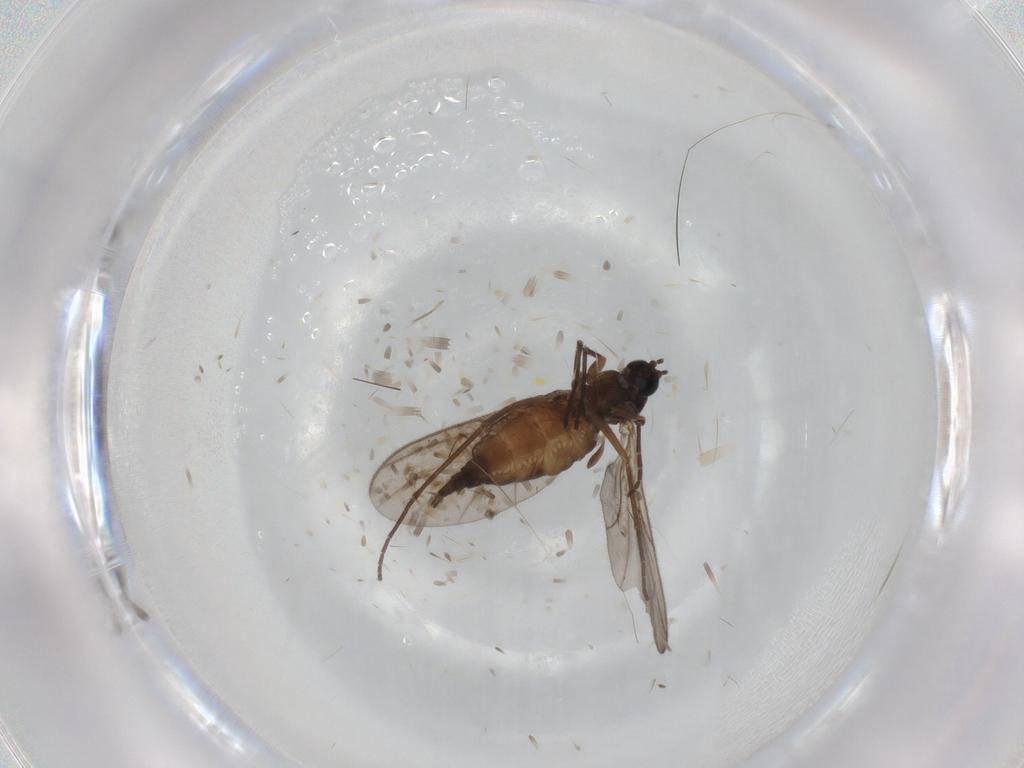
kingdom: Animalia
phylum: Arthropoda
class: Insecta
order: Diptera
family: Sciaridae
